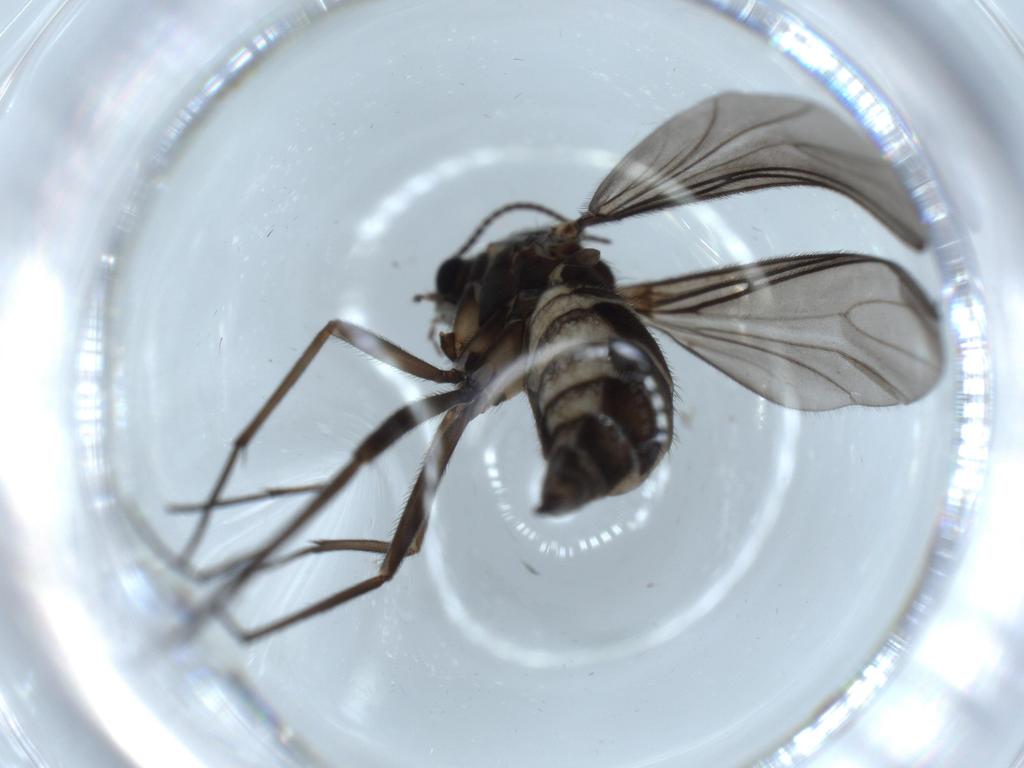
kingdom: Animalia
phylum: Arthropoda
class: Insecta
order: Diptera
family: Sciaridae
